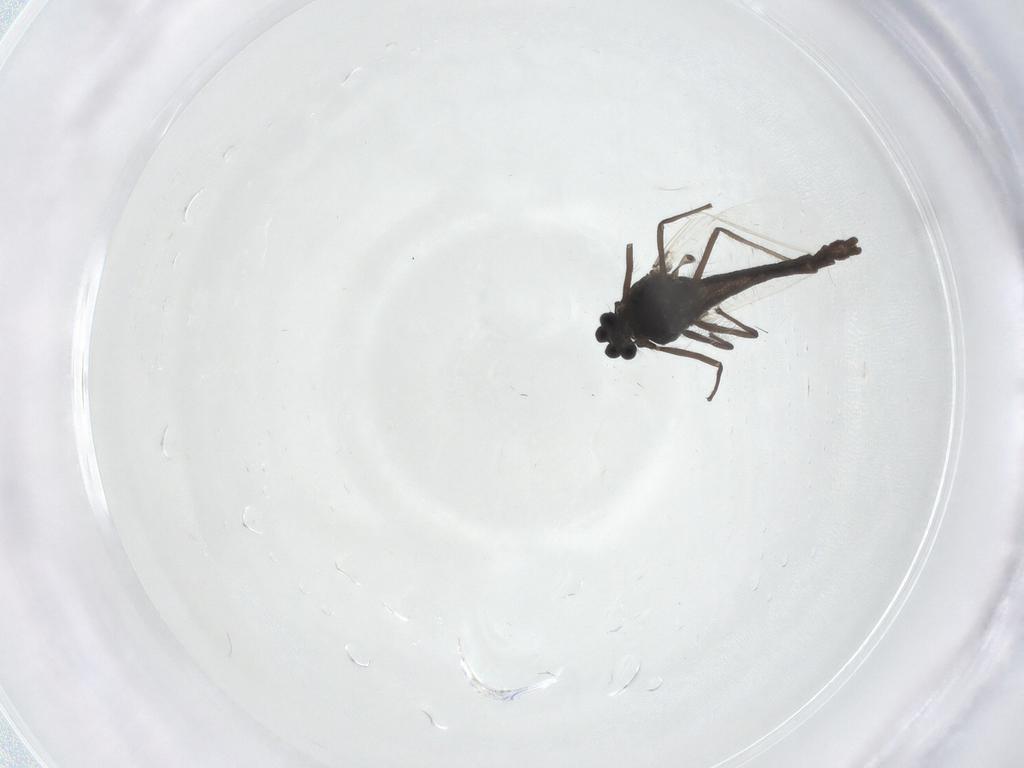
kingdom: Animalia
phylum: Arthropoda
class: Insecta
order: Diptera
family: Chironomidae
